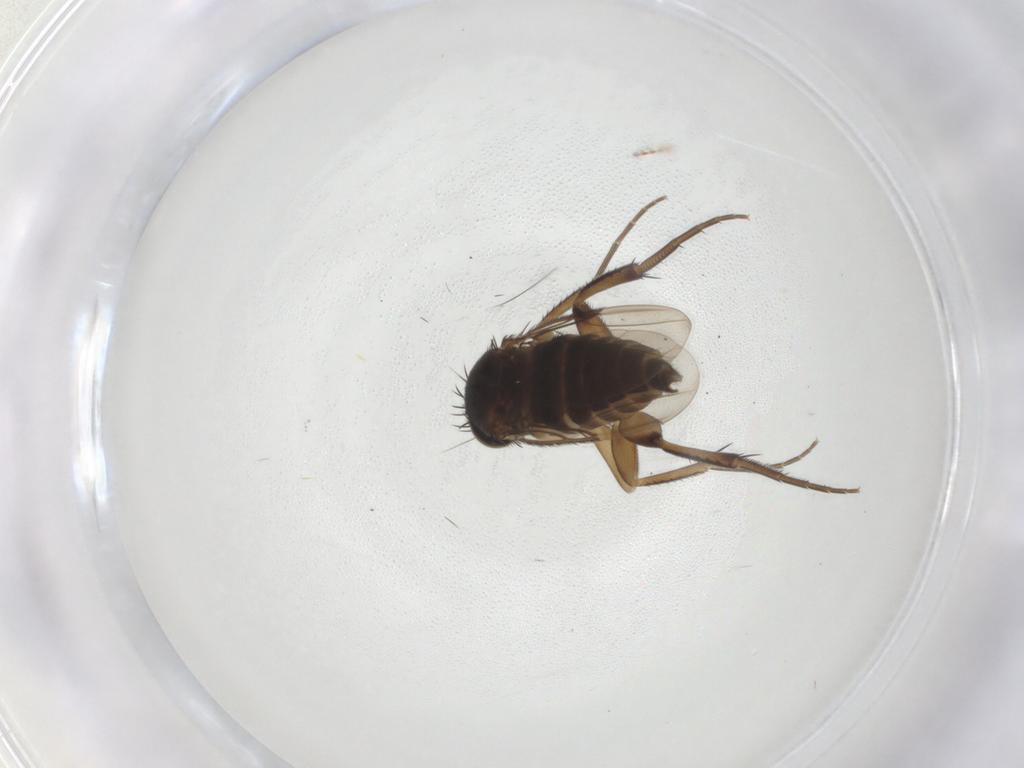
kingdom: Animalia
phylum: Arthropoda
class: Insecta
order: Diptera
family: Phoridae
